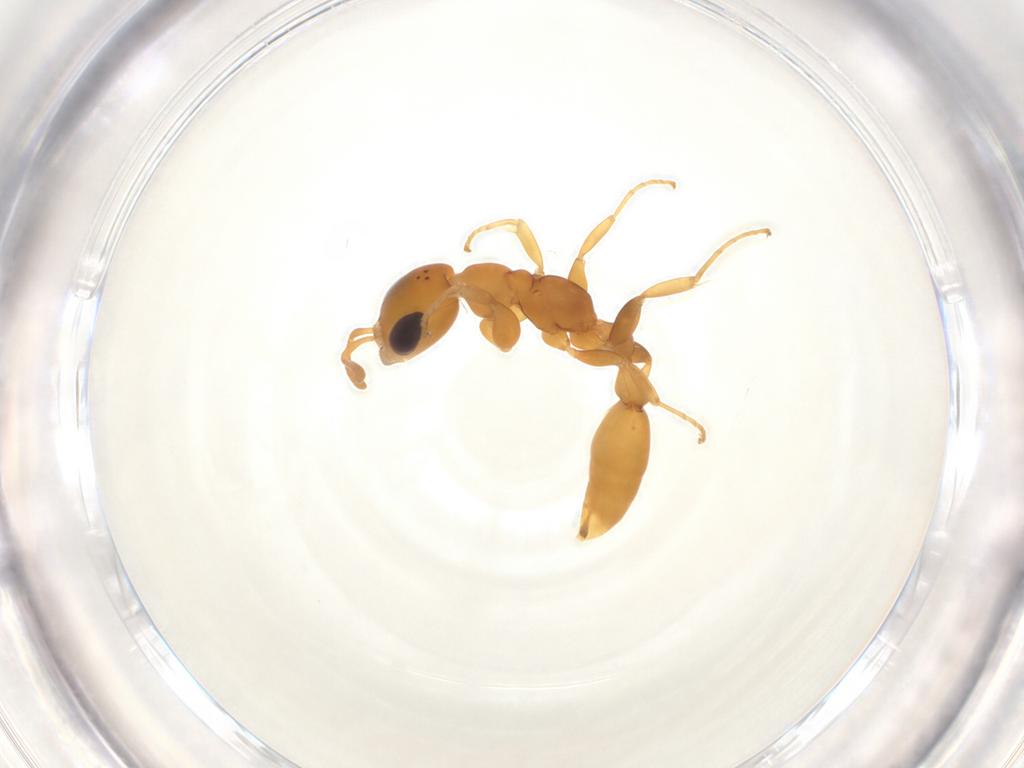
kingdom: Animalia
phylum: Arthropoda
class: Insecta
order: Hymenoptera
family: Formicidae
